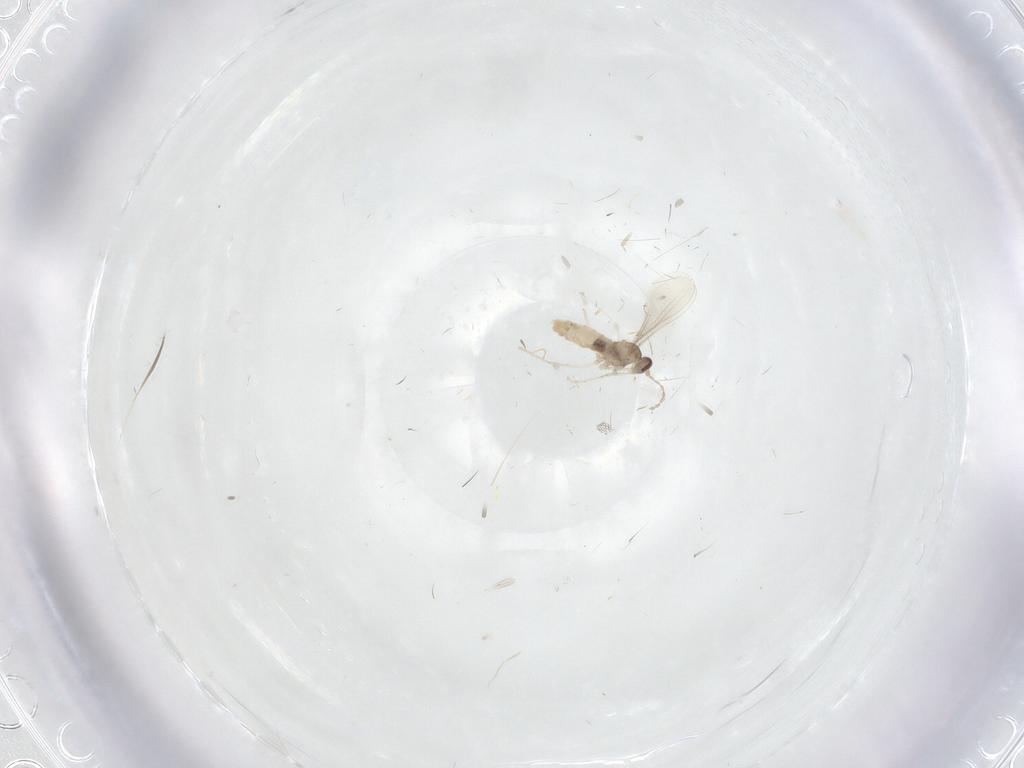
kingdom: Animalia
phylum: Arthropoda
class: Insecta
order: Diptera
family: Cecidomyiidae
